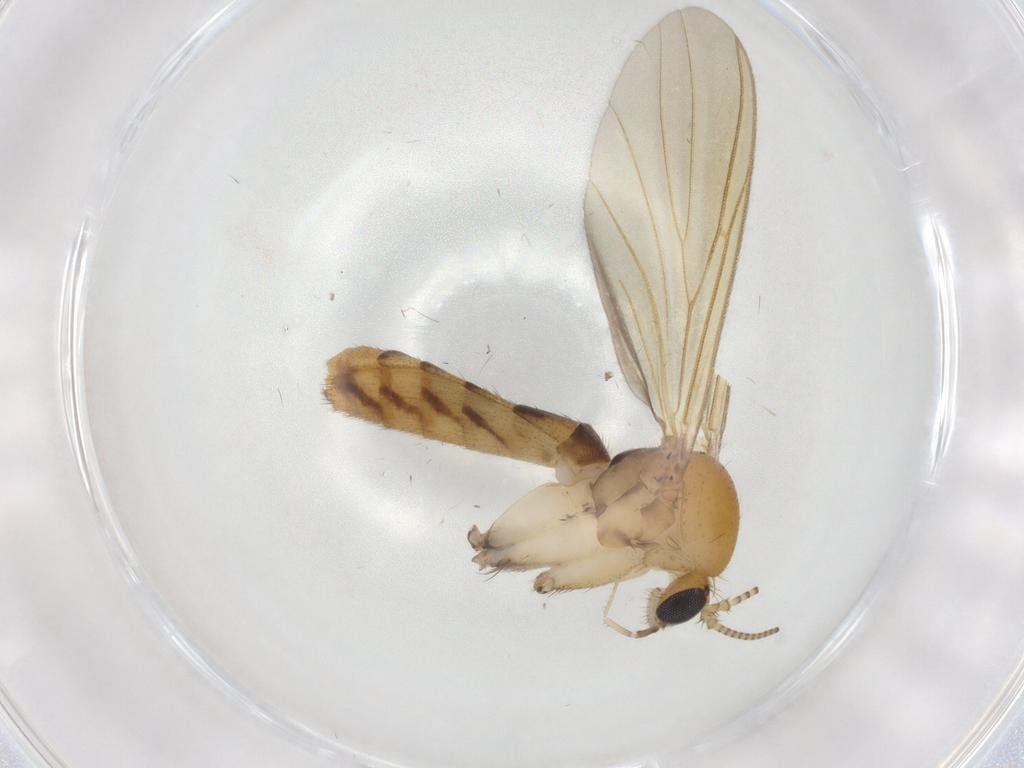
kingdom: Animalia
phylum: Arthropoda
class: Insecta
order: Diptera
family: Mycetophilidae
